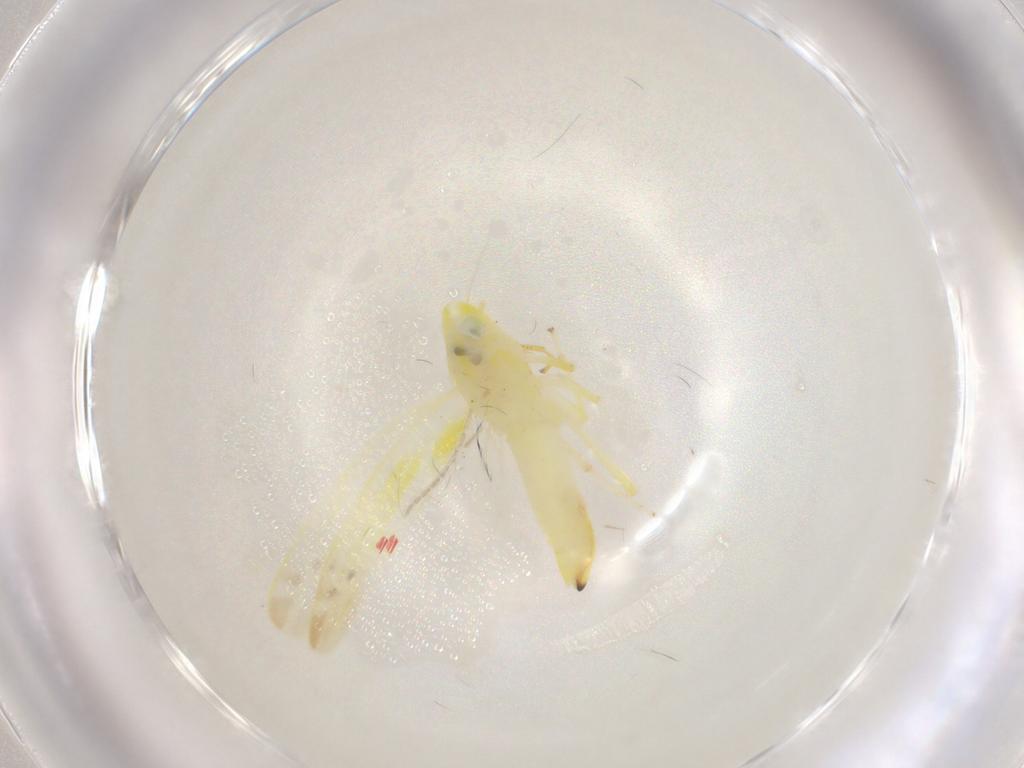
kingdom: Animalia
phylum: Arthropoda
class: Insecta
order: Hemiptera
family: Cicadellidae
